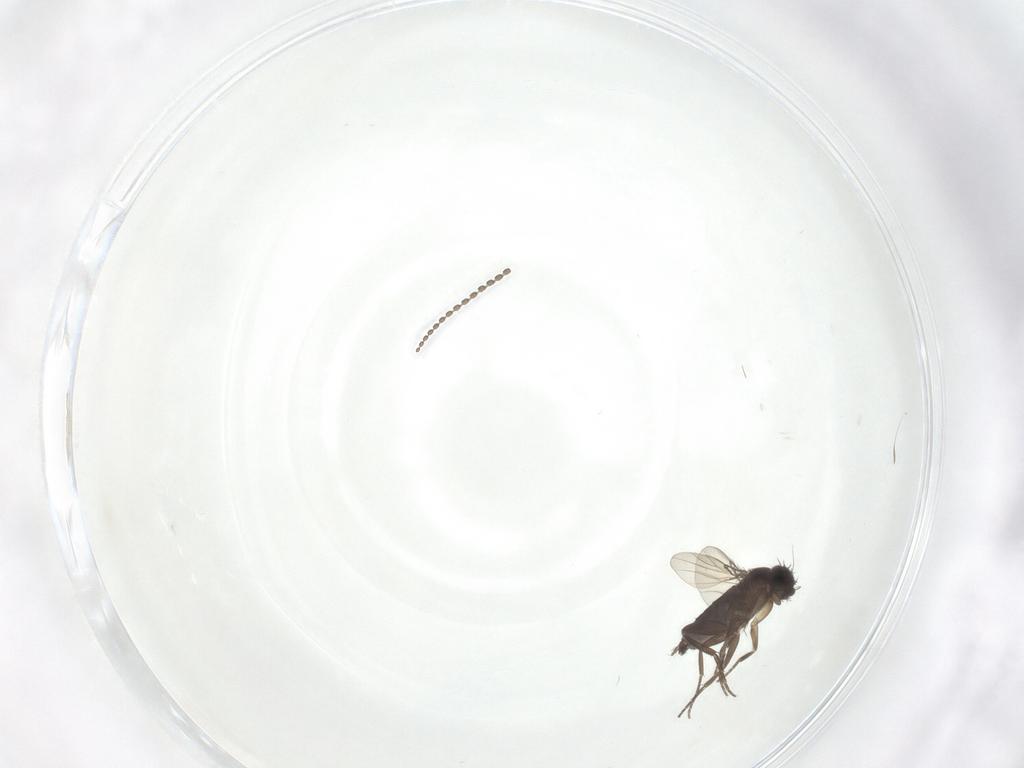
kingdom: Animalia
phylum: Arthropoda
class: Insecta
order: Diptera
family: Phoridae
